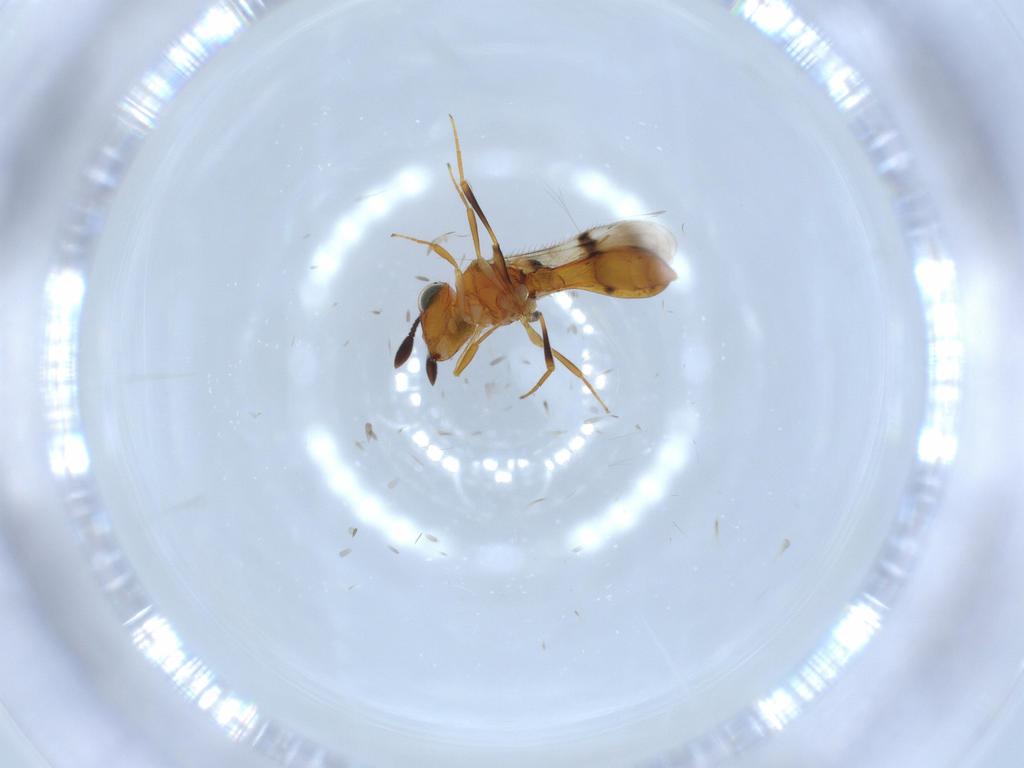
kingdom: Animalia
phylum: Arthropoda
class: Insecta
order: Hymenoptera
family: Scelionidae
